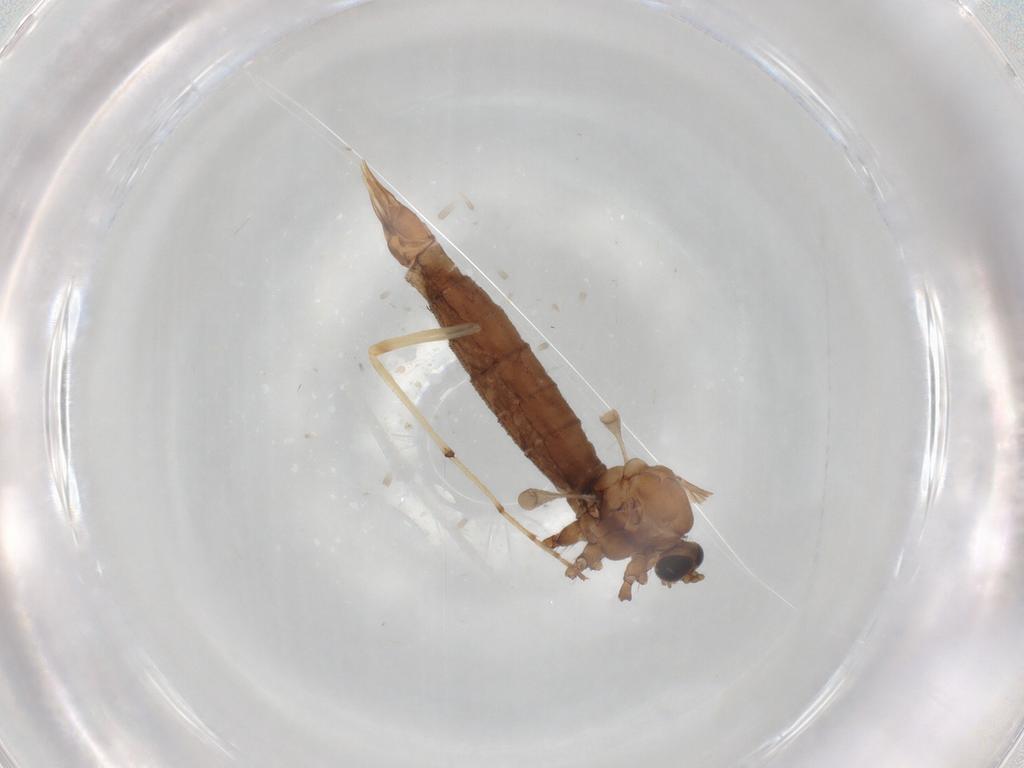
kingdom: Animalia
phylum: Arthropoda
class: Insecta
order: Diptera
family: Limoniidae
